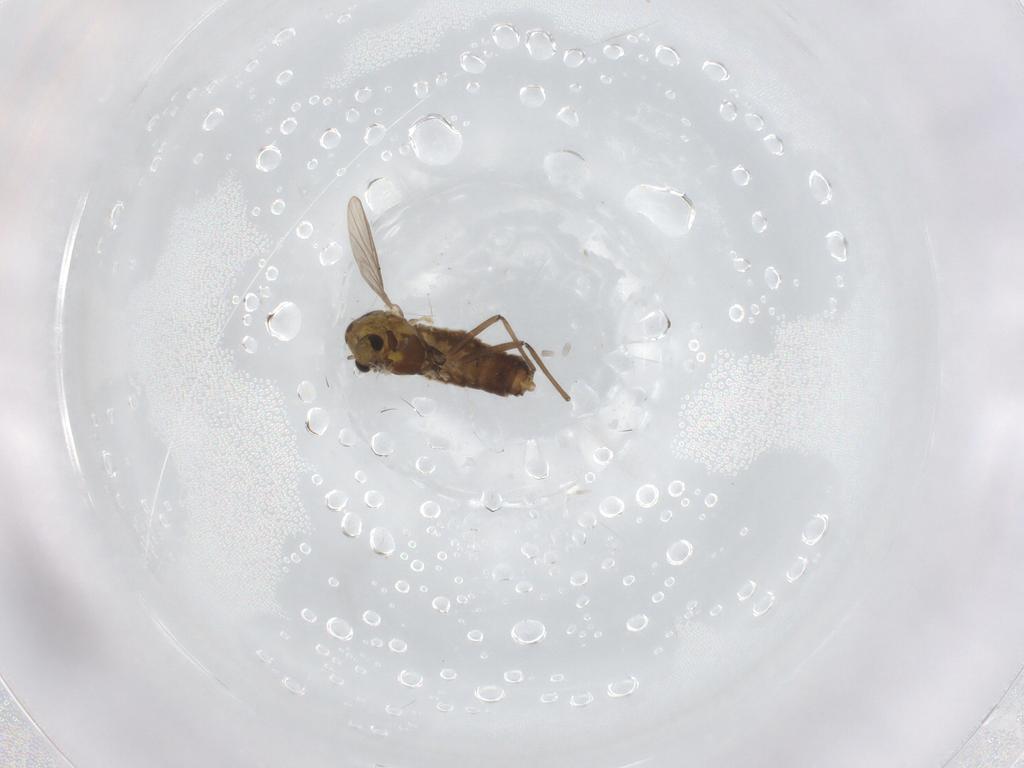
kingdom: Animalia
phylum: Arthropoda
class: Insecta
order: Diptera
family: Chironomidae
